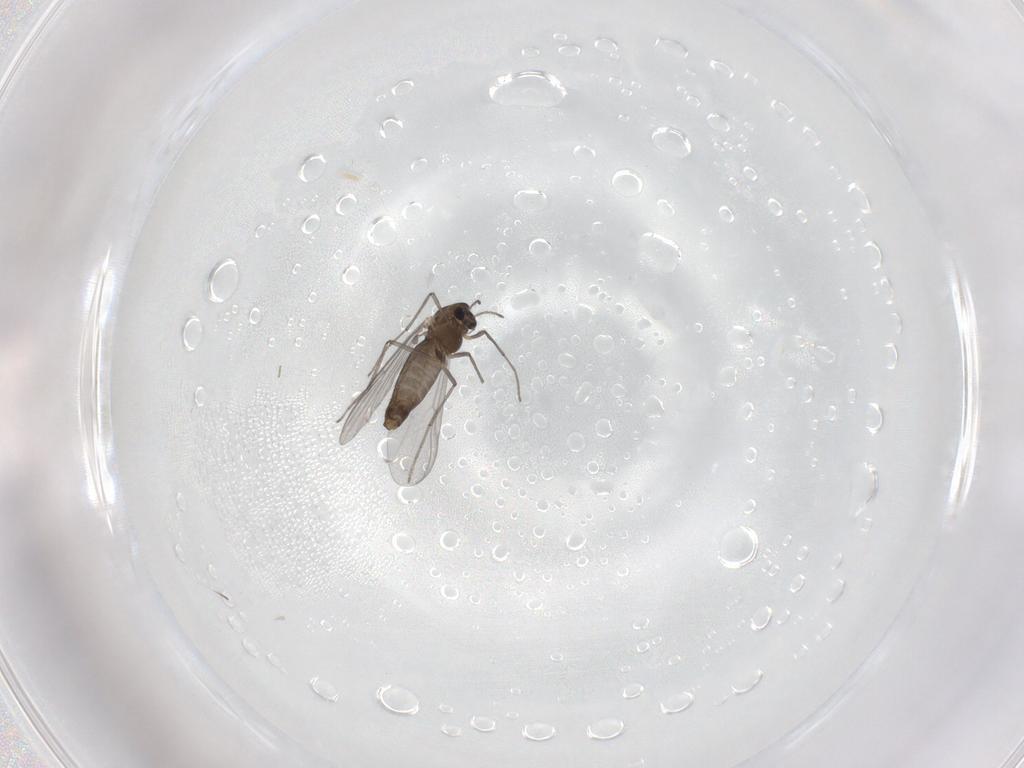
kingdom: Animalia
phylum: Arthropoda
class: Insecta
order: Diptera
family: Chironomidae
